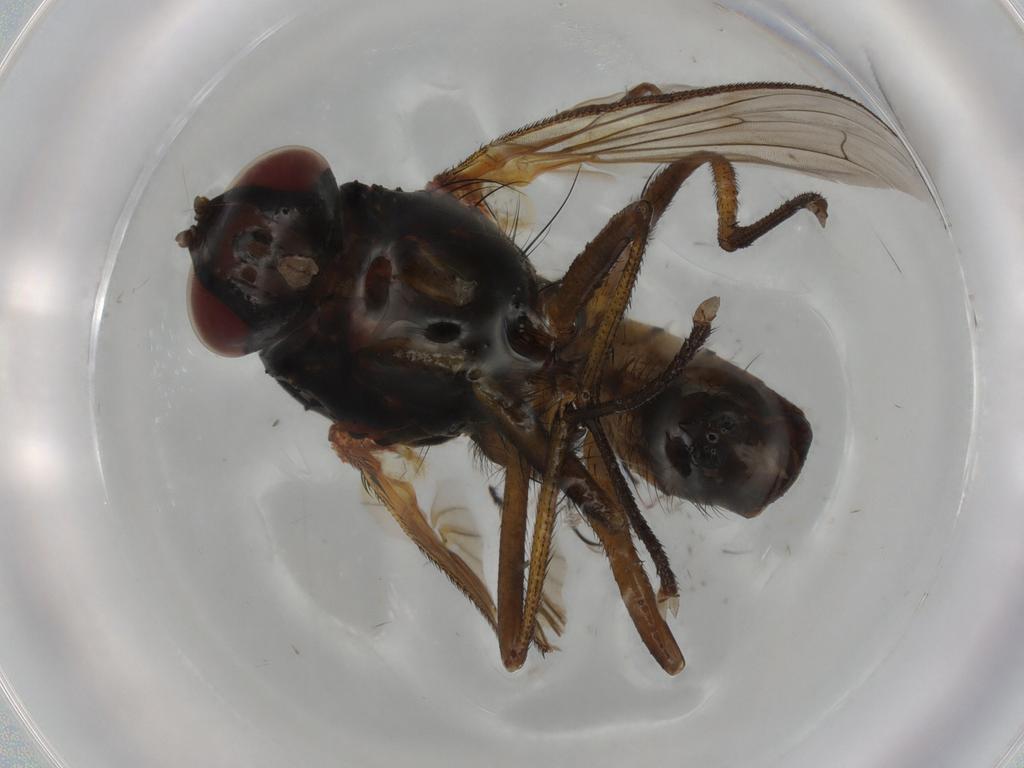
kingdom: Animalia
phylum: Arthropoda
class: Insecta
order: Diptera
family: Anthomyiidae
